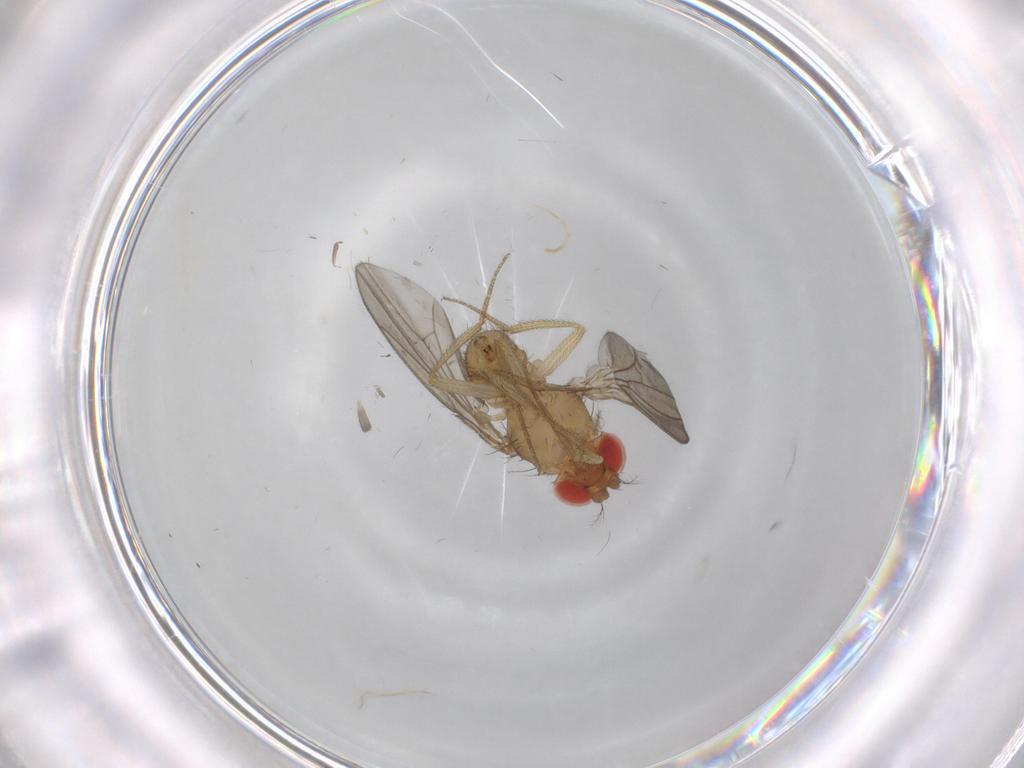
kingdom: Animalia
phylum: Arthropoda
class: Insecta
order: Diptera
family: Drosophilidae
